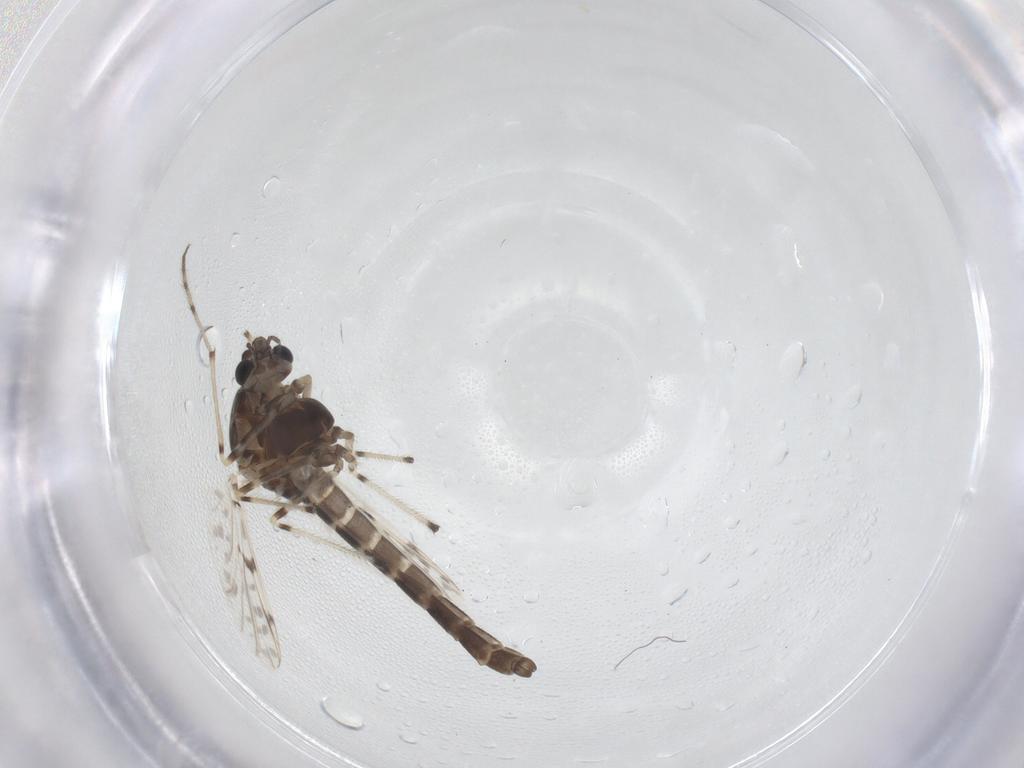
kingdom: Animalia
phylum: Arthropoda
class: Insecta
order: Diptera
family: Chironomidae
